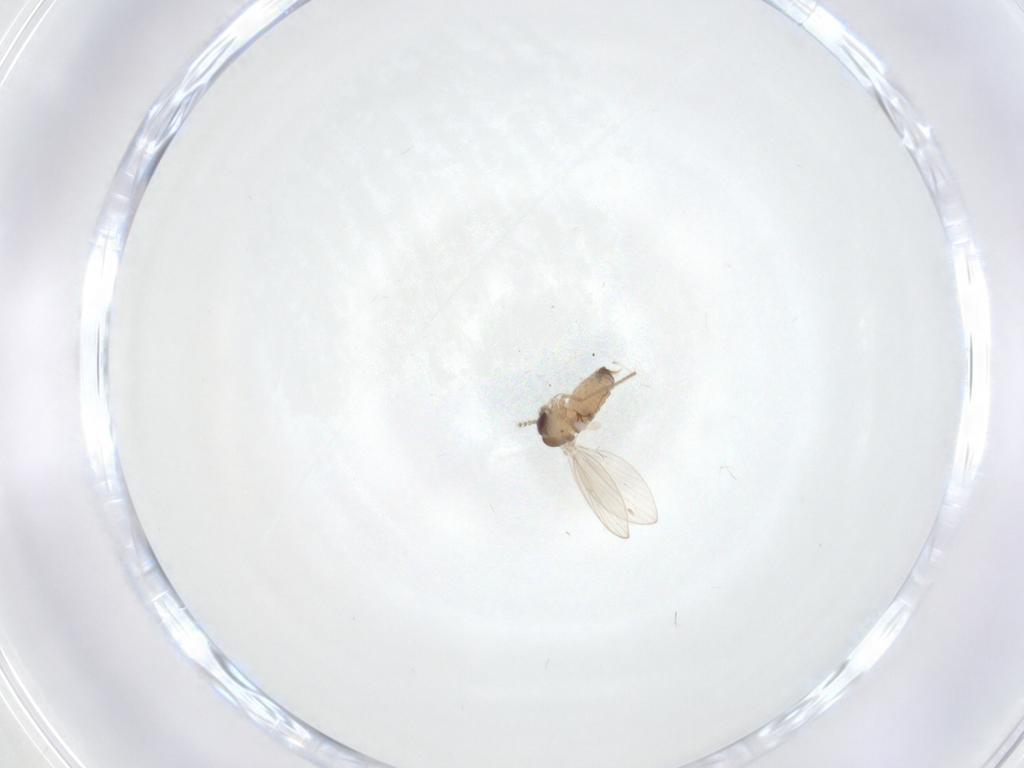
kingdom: Animalia
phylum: Arthropoda
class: Insecta
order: Diptera
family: Psychodidae
